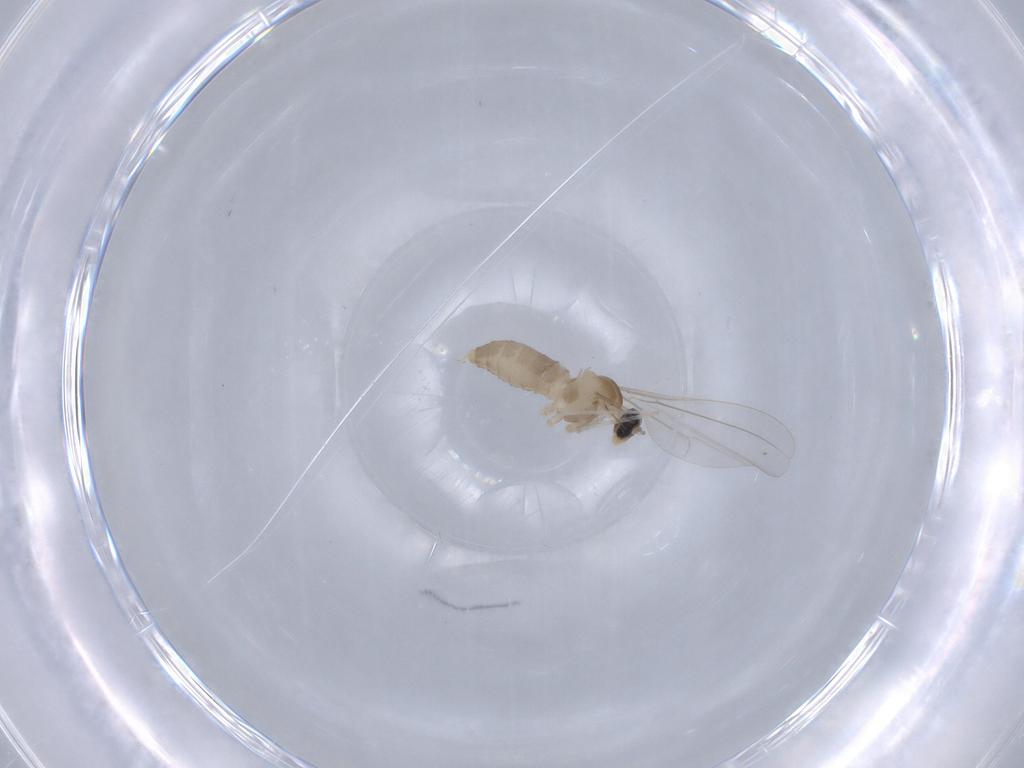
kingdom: Animalia
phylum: Arthropoda
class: Insecta
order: Diptera
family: Cecidomyiidae
